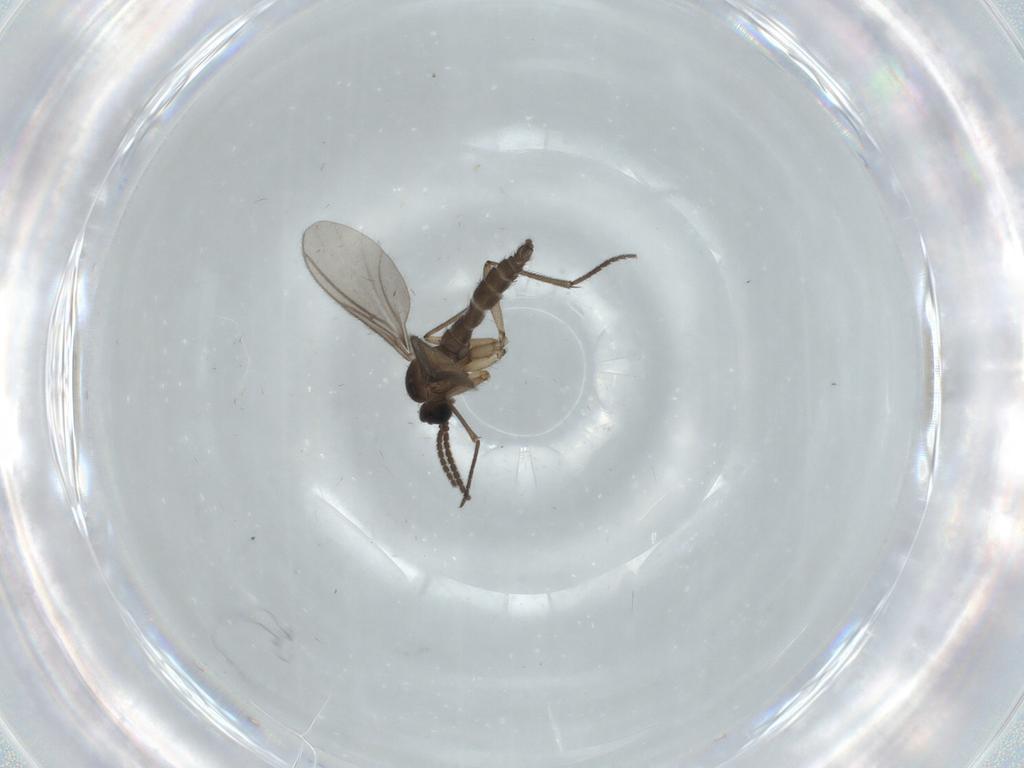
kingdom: Animalia
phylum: Arthropoda
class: Insecta
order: Diptera
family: Sciaridae
